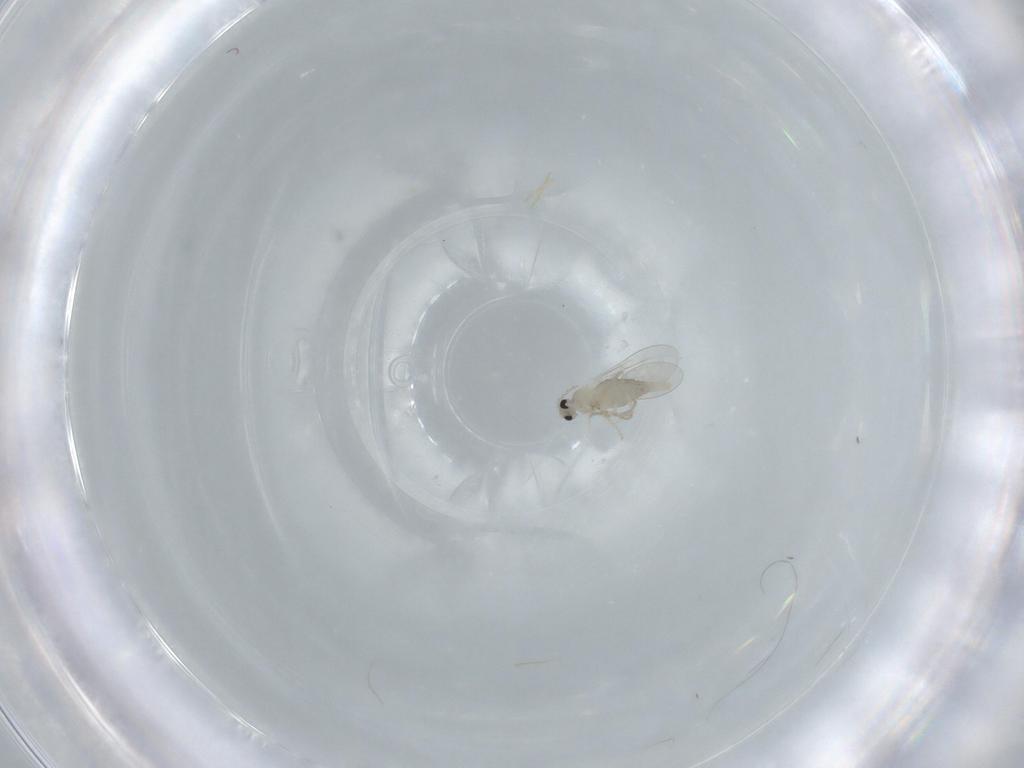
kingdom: Animalia
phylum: Arthropoda
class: Insecta
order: Diptera
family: Cecidomyiidae
